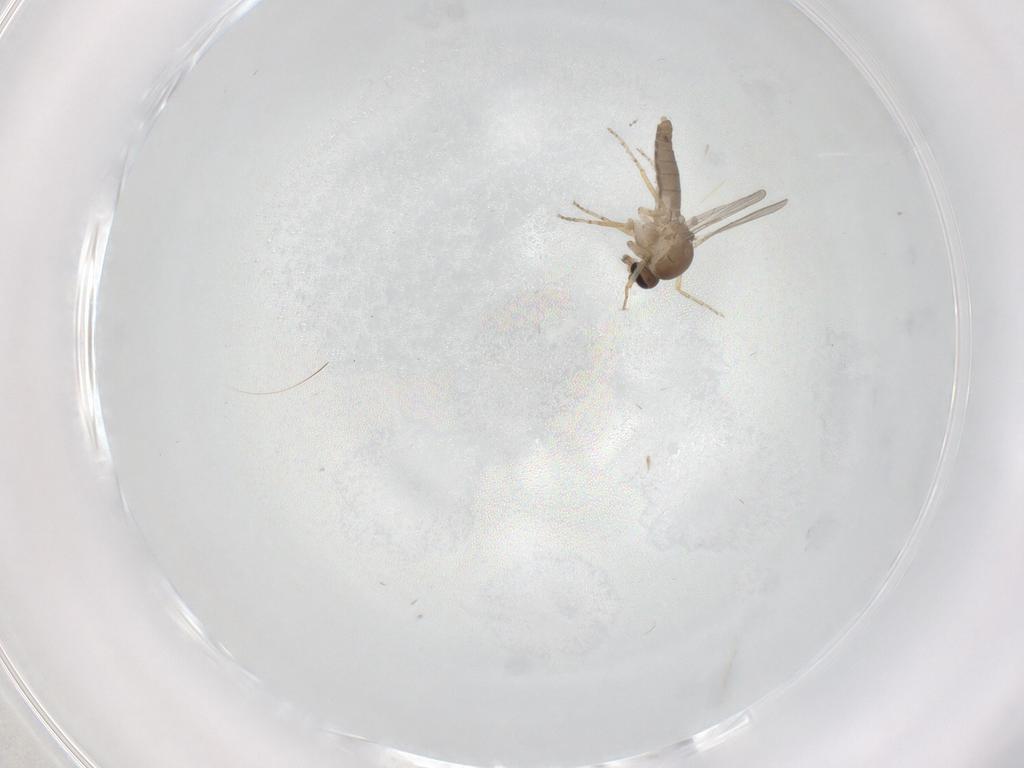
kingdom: Animalia
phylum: Arthropoda
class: Insecta
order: Diptera
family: Ceratopogonidae
